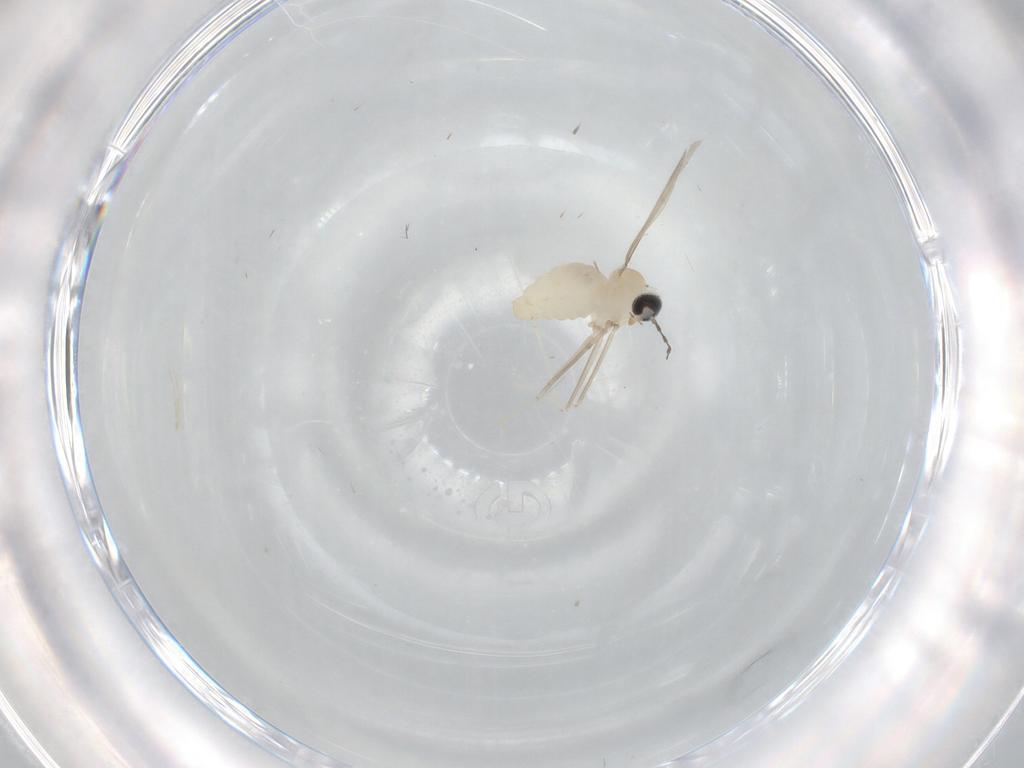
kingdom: Animalia
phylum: Arthropoda
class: Insecta
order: Diptera
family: Cecidomyiidae
